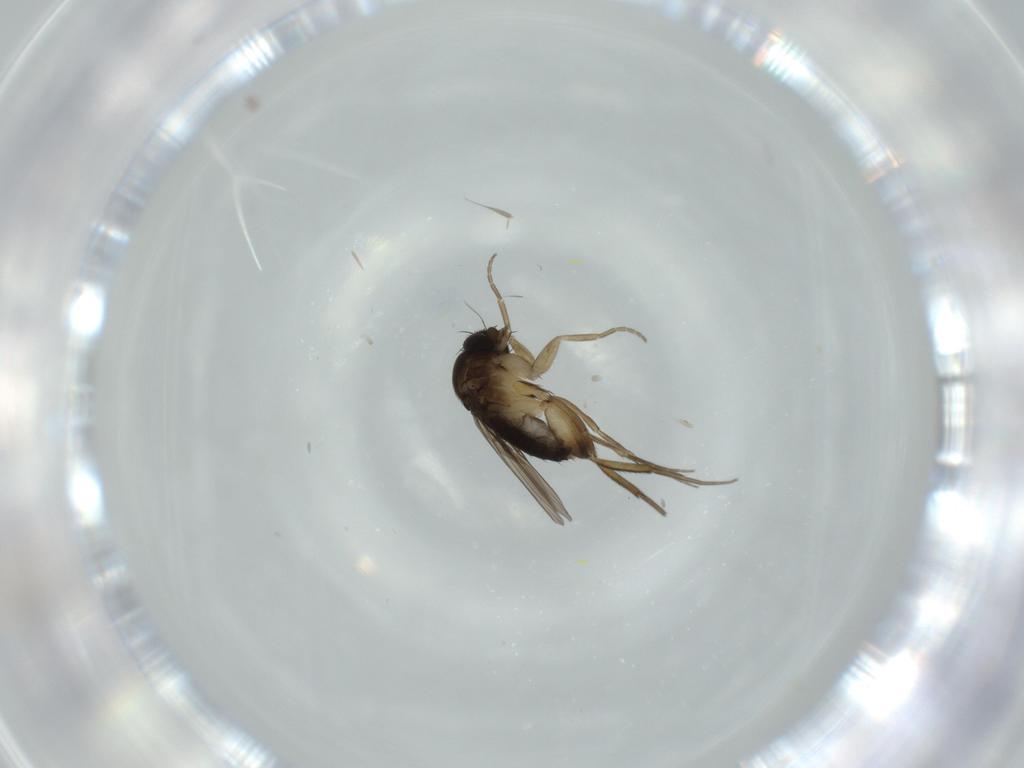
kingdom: Animalia
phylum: Arthropoda
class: Insecta
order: Diptera
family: Phoridae
